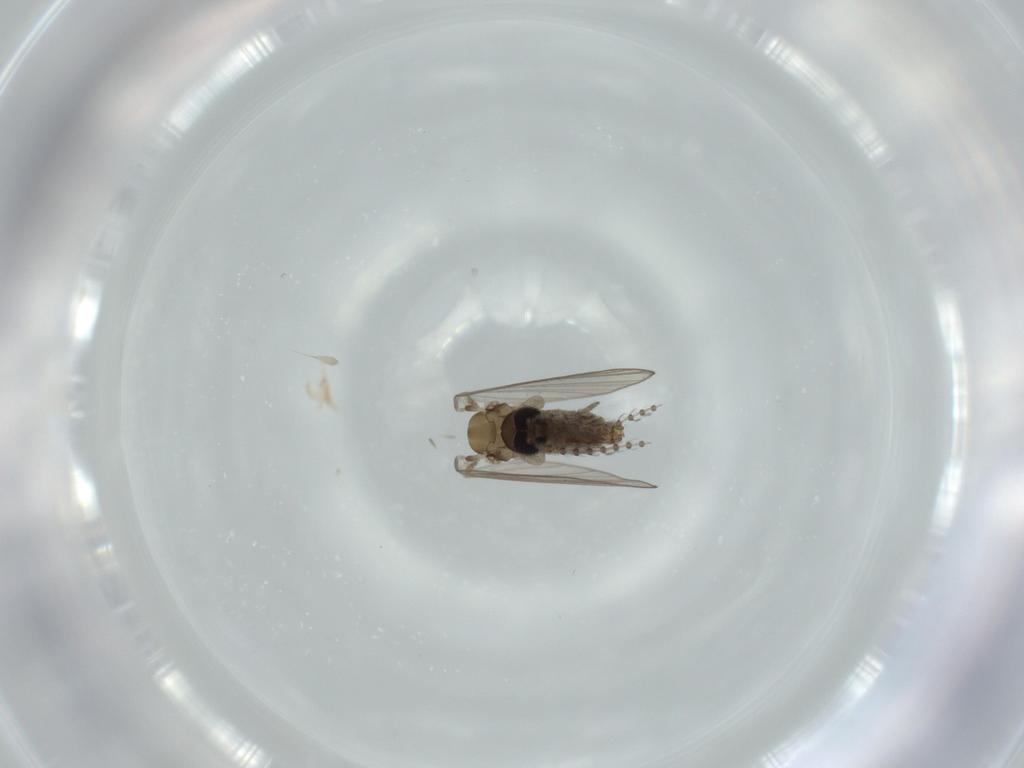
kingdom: Animalia
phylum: Arthropoda
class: Insecta
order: Diptera
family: Psychodidae
